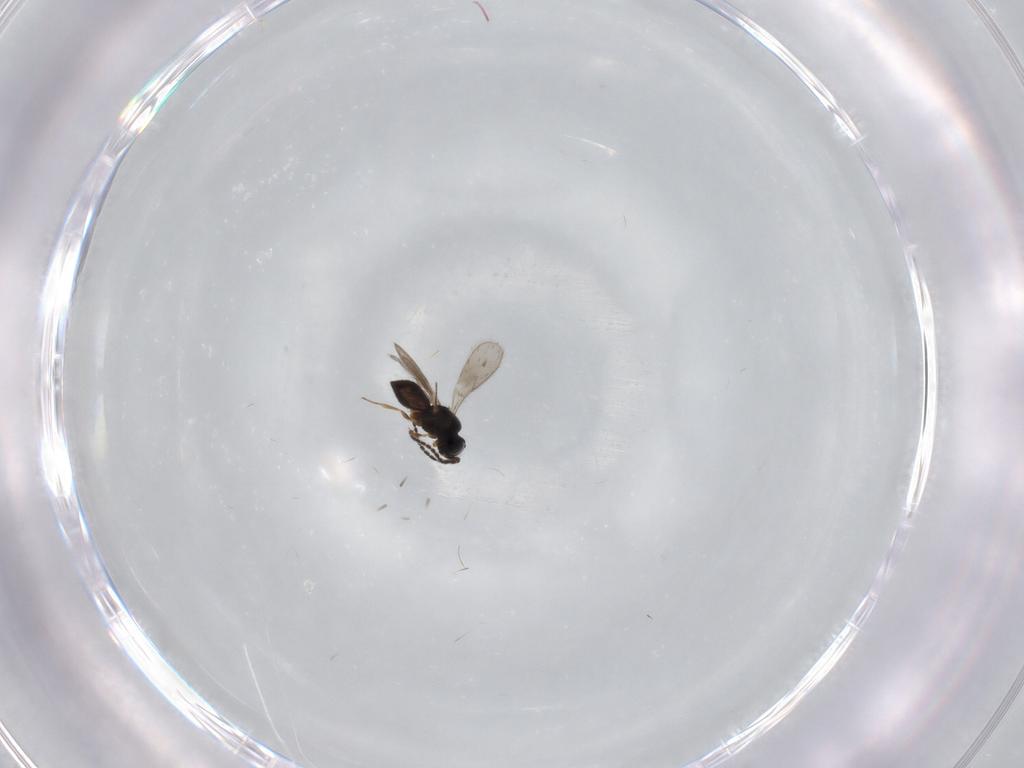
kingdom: Animalia
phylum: Arthropoda
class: Insecta
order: Hymenoptera
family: Scelionidae
